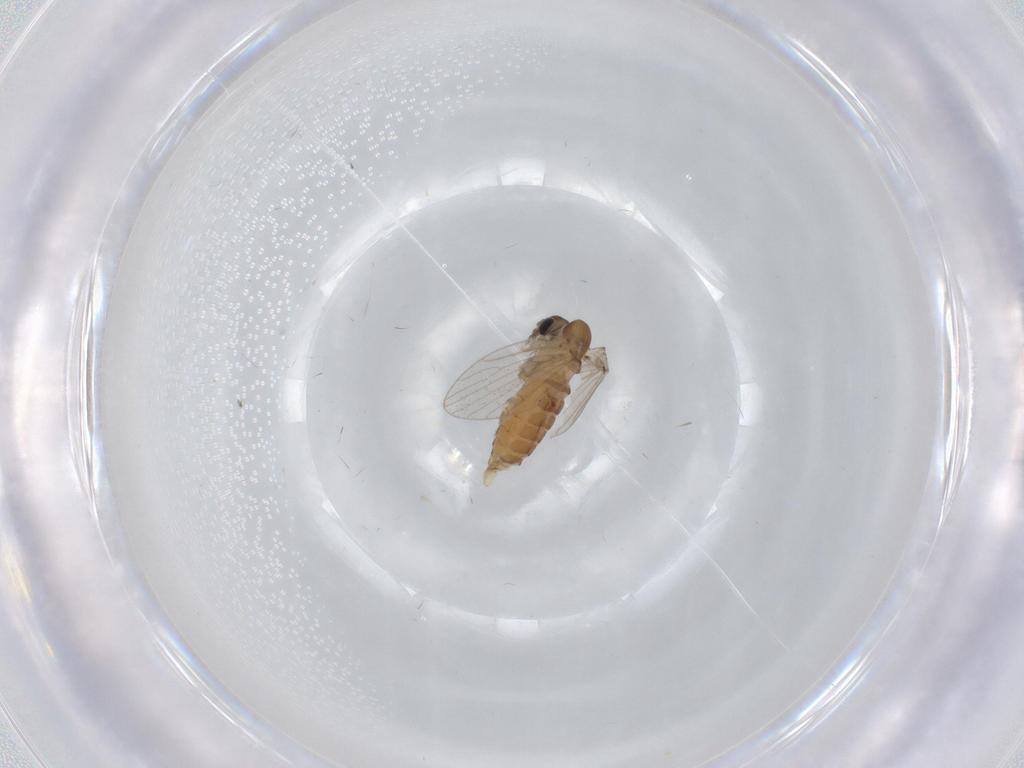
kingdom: Animalia
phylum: Arthropoda
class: Insecta
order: Diptera
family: Psychodidae
